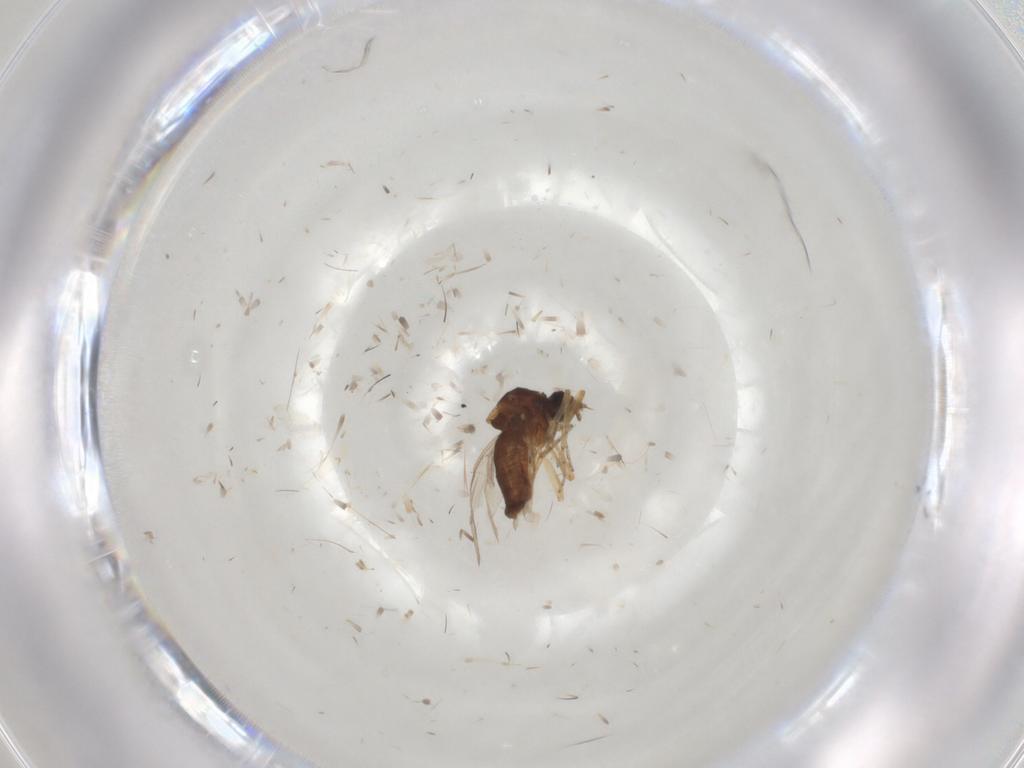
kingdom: Animalia
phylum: Arthropoda
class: Insecta
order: Diptera
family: Ceratopogonidae
